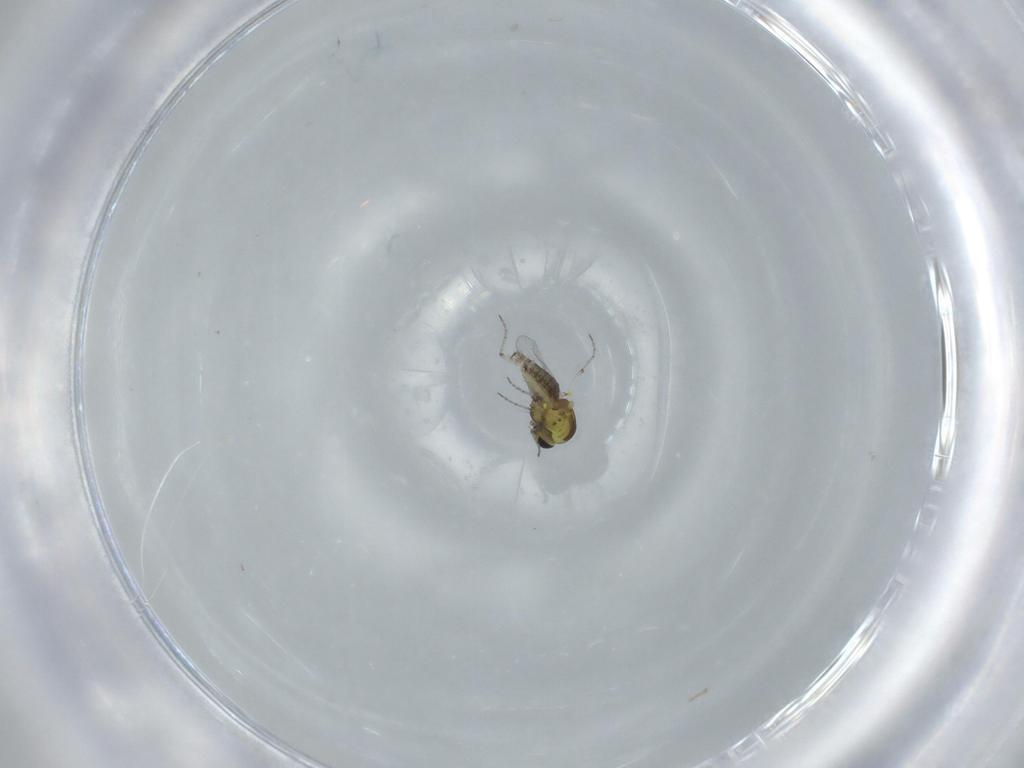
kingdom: Animalia
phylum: Arthropoda
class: Insecta
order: Diptera
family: Ceratopogonidae
